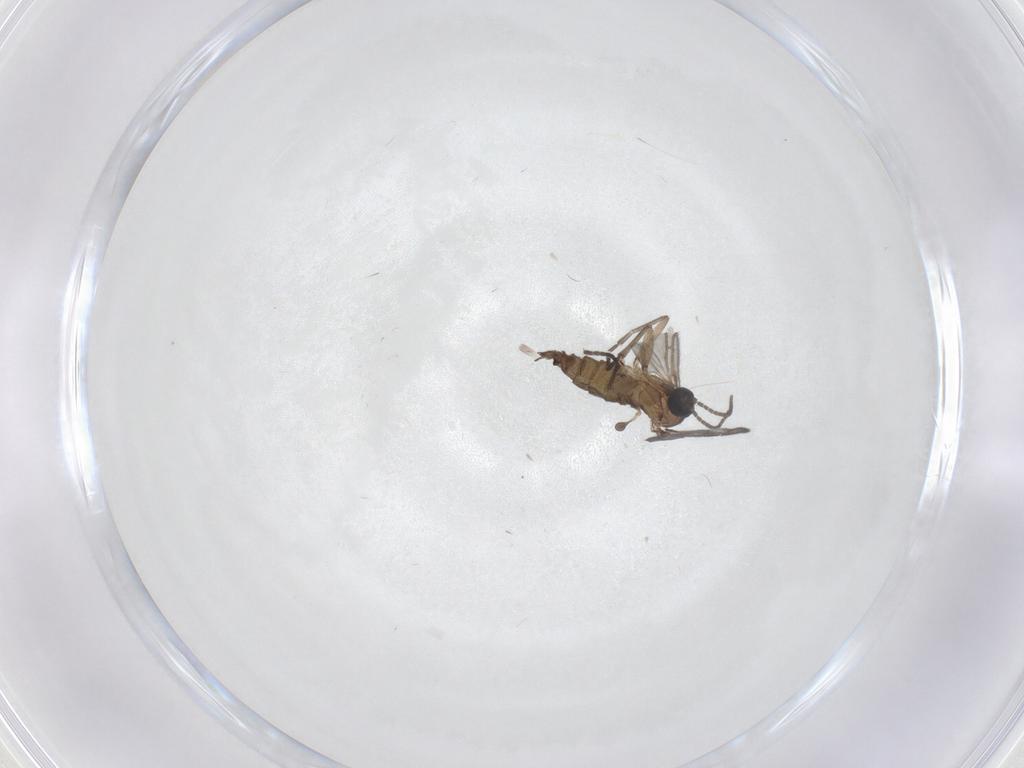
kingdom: Animalia
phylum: Arthropoda
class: Insecta
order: Diptera
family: Sciaridae
